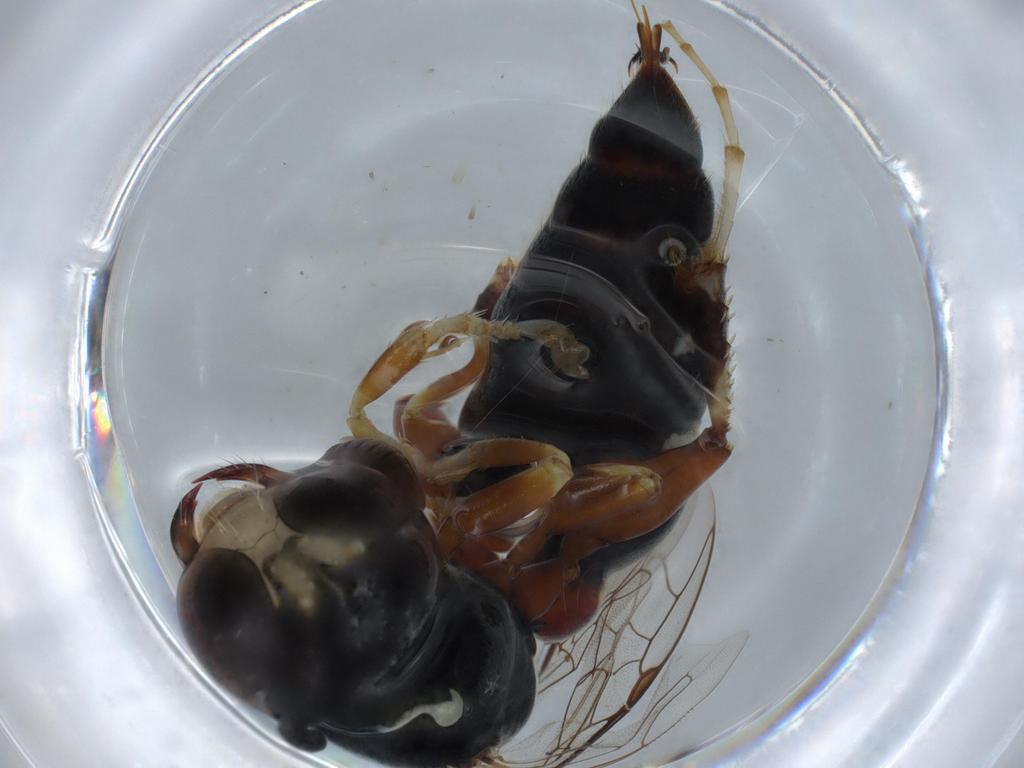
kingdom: Animalia
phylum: Arthropoda
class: Insecta
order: Hymenoptera
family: Crabronidae
